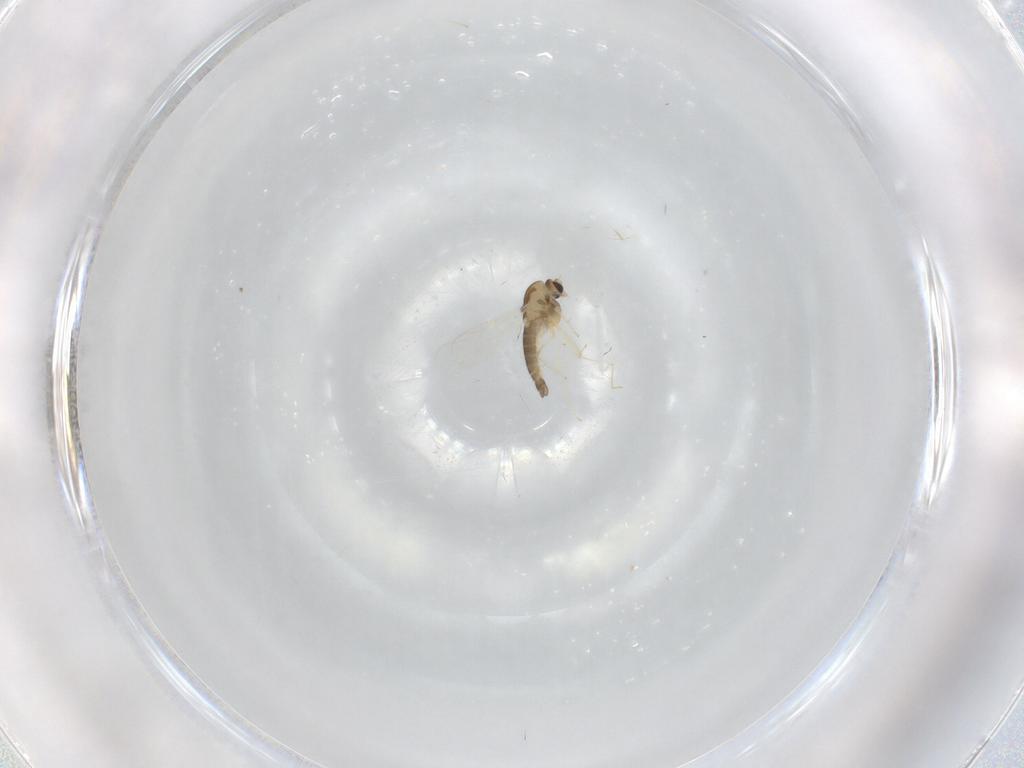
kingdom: Animalia
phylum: Arthropoda
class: Insecta
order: Diptera
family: Chironomidae
